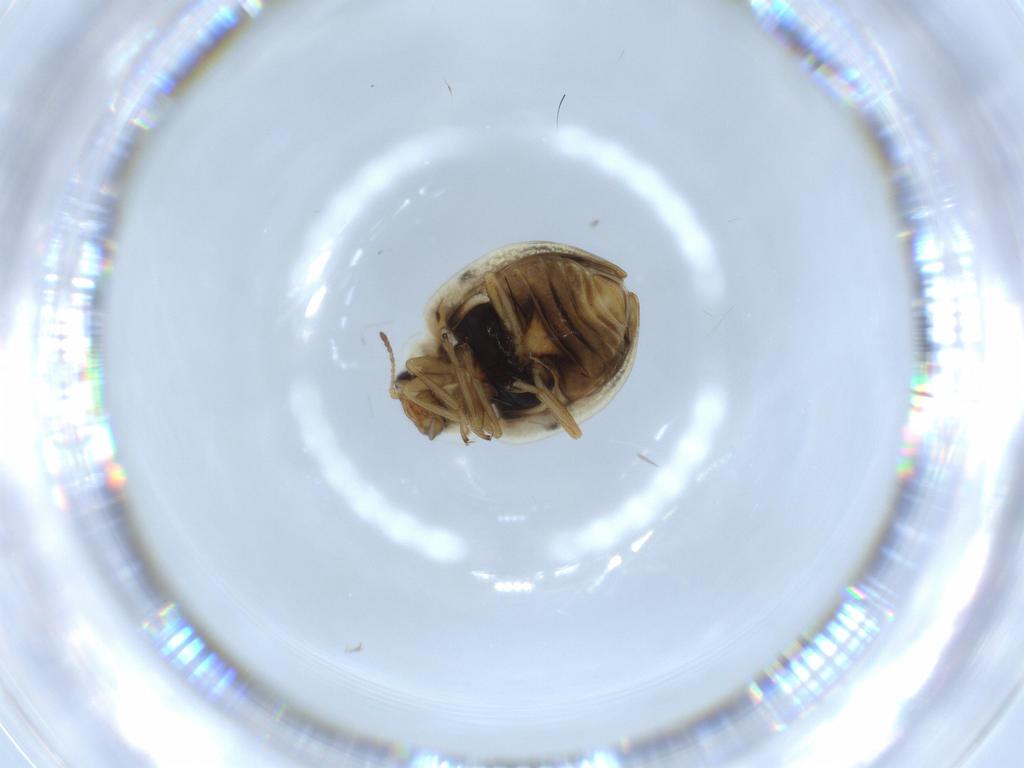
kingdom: Animalia
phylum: Arthropoda
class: Insecta
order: Coleoptera
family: Coccinellidae
